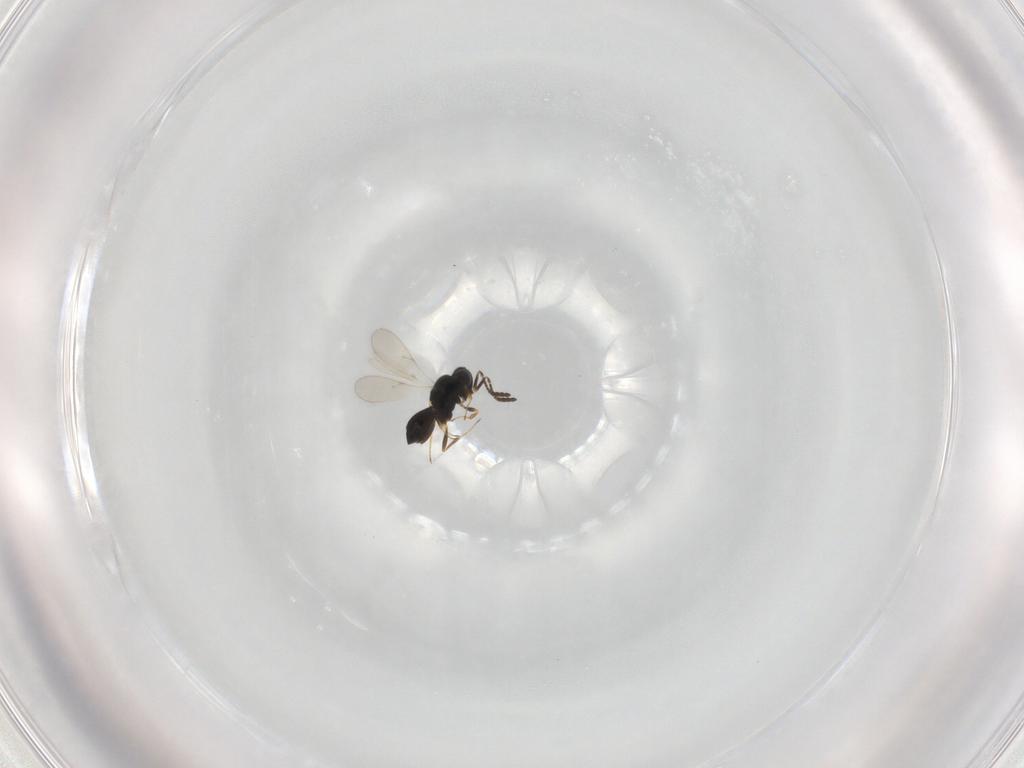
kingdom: Animalia
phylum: Arthropoda
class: Insecta
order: Hymenoptera
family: Scelionidae
